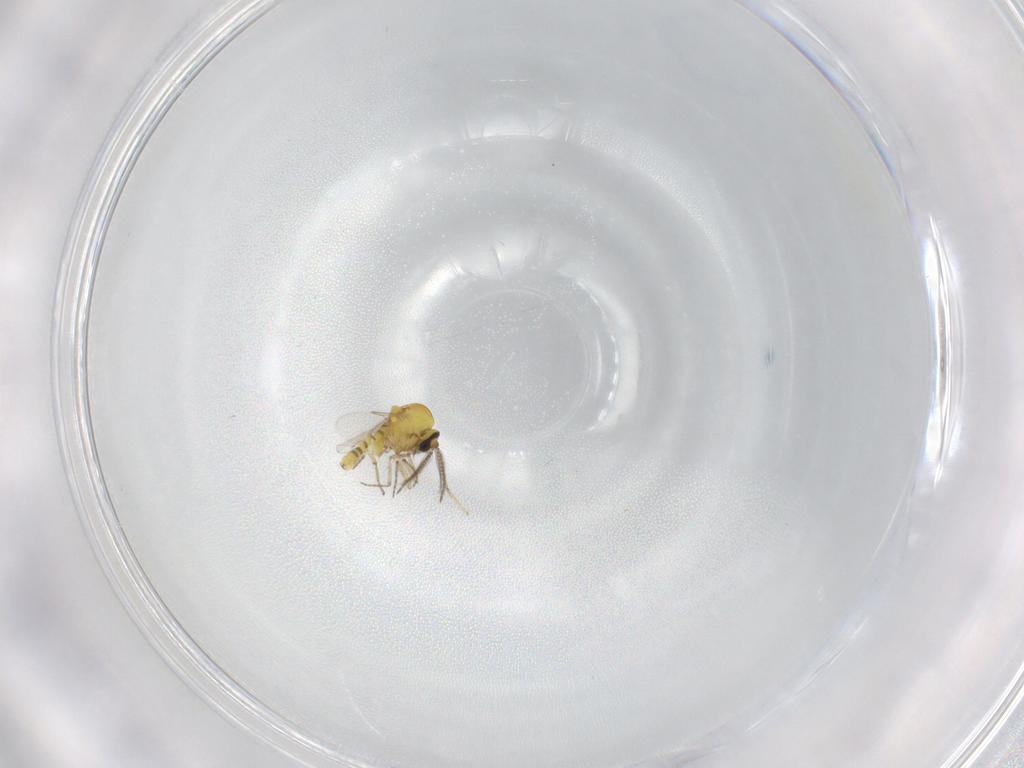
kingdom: Animalia
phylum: Arthropoda
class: Insecta
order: Diptera
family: Ceratopogonidae
